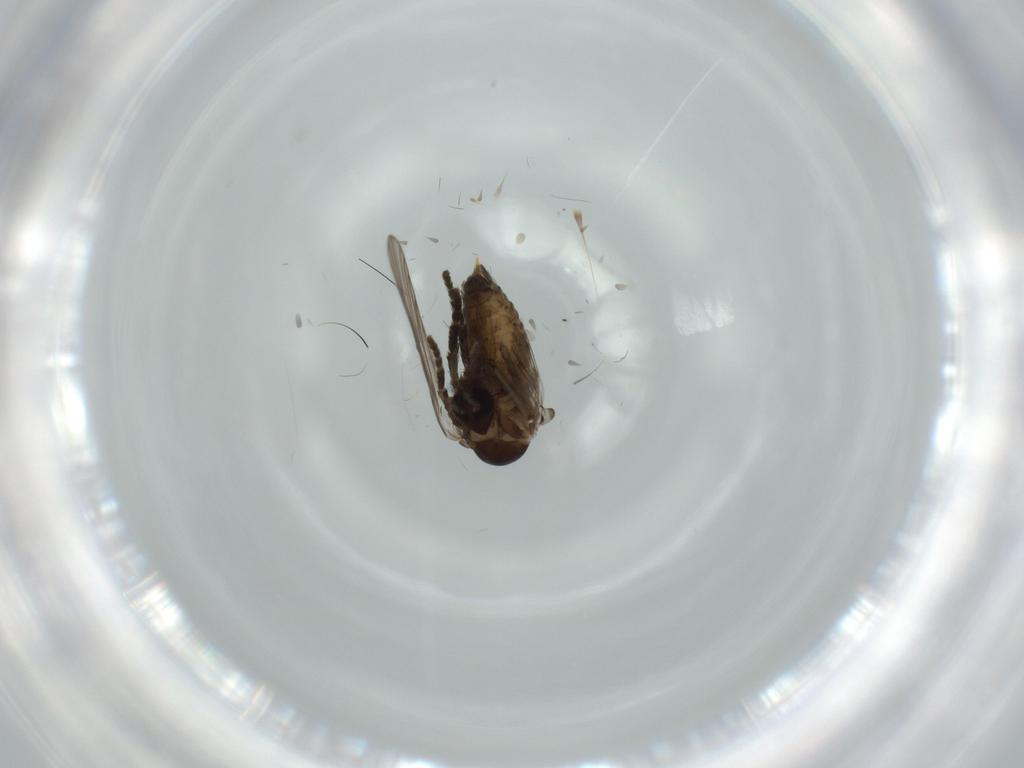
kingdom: Animalia
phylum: Arthropoda
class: Insecta
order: Diptera
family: Psychodidae
